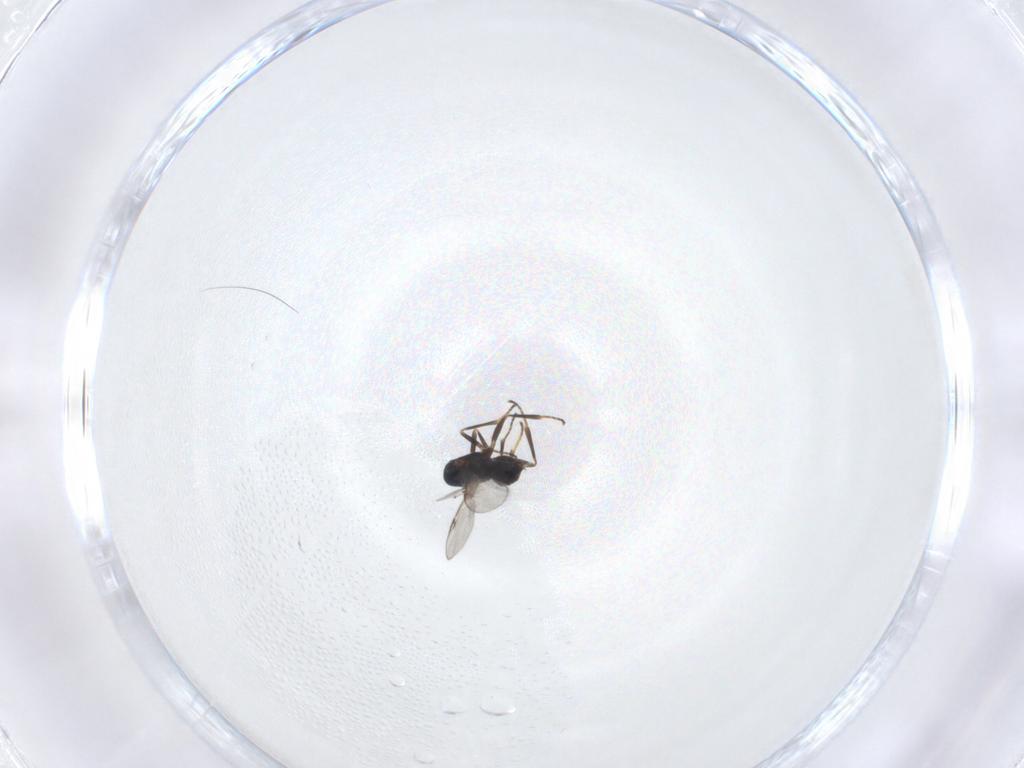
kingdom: Animalia
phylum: Arthropoda
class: Insecta
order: Hymenoptera
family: Encyrtidae
